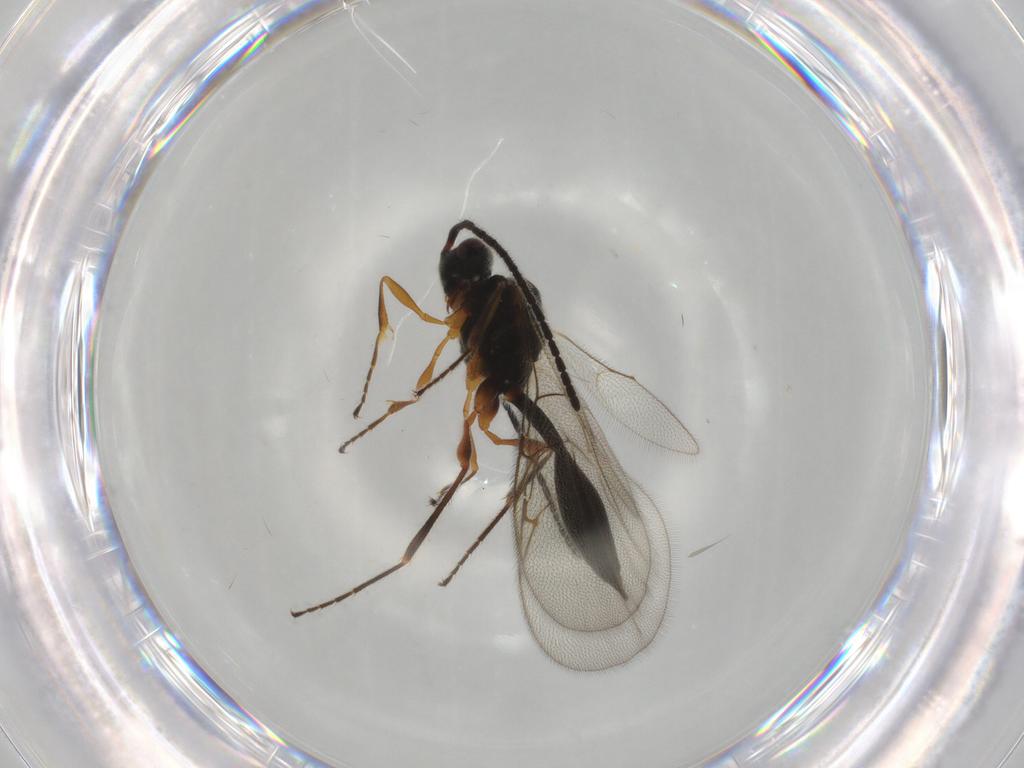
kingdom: Animalia
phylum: Arthropoda
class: Insecta
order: Hymenoptera
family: Diapriidae
